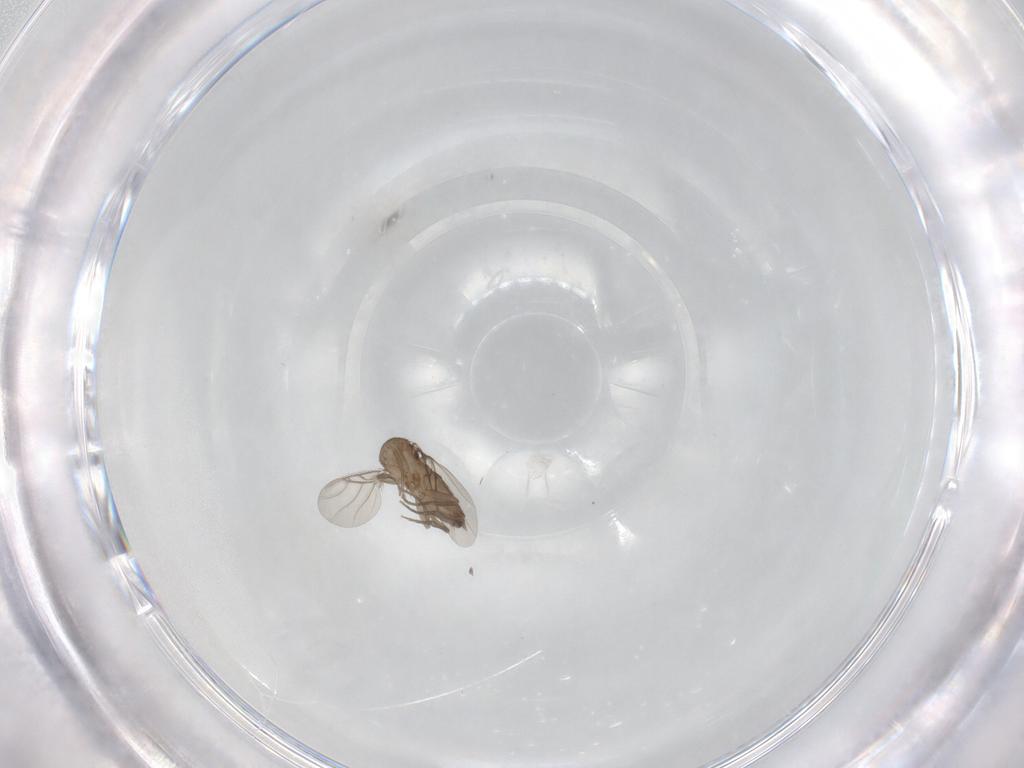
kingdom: Animalia
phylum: Arthropoda
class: Insecta
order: Diptera
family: Phoridae
